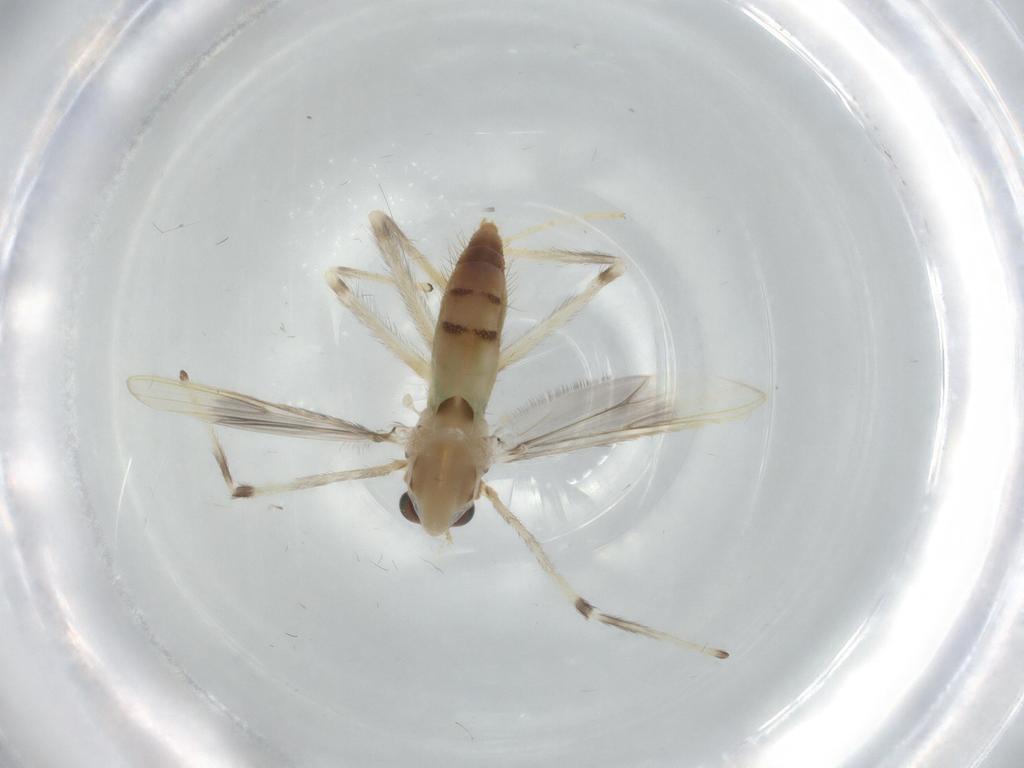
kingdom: Animalia
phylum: Arthropoda
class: Insecta
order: Diptera
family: Chironomidae
